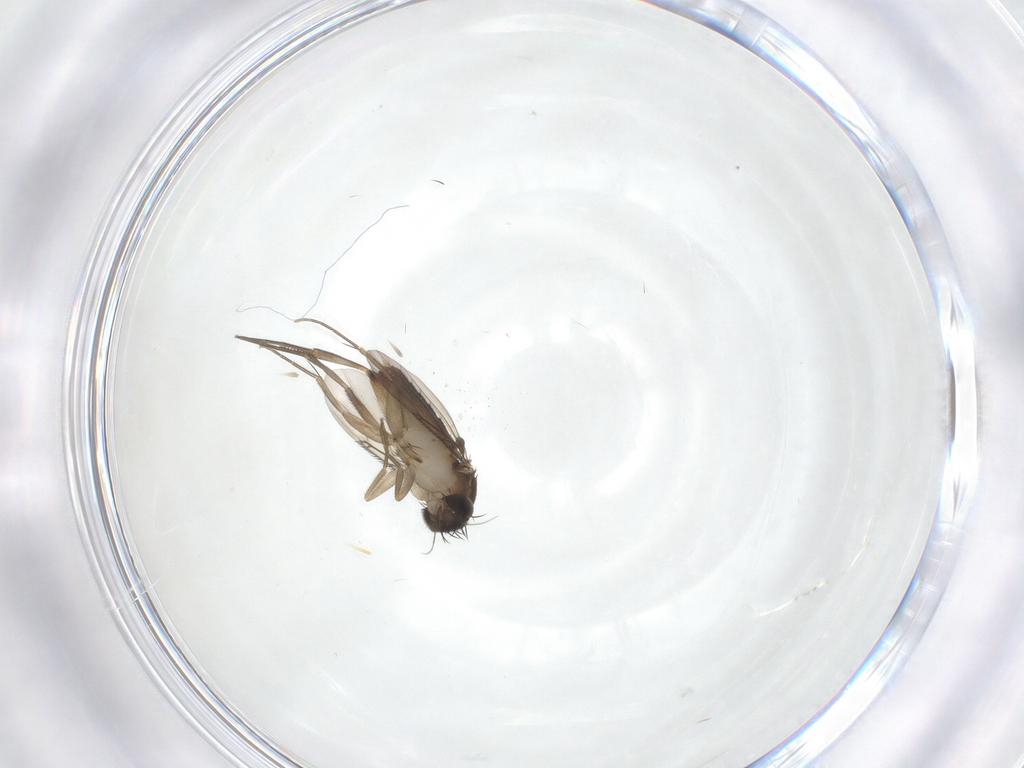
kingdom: Animalia
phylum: Arthropoda
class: Insecta
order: Diptera
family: Phoridae
